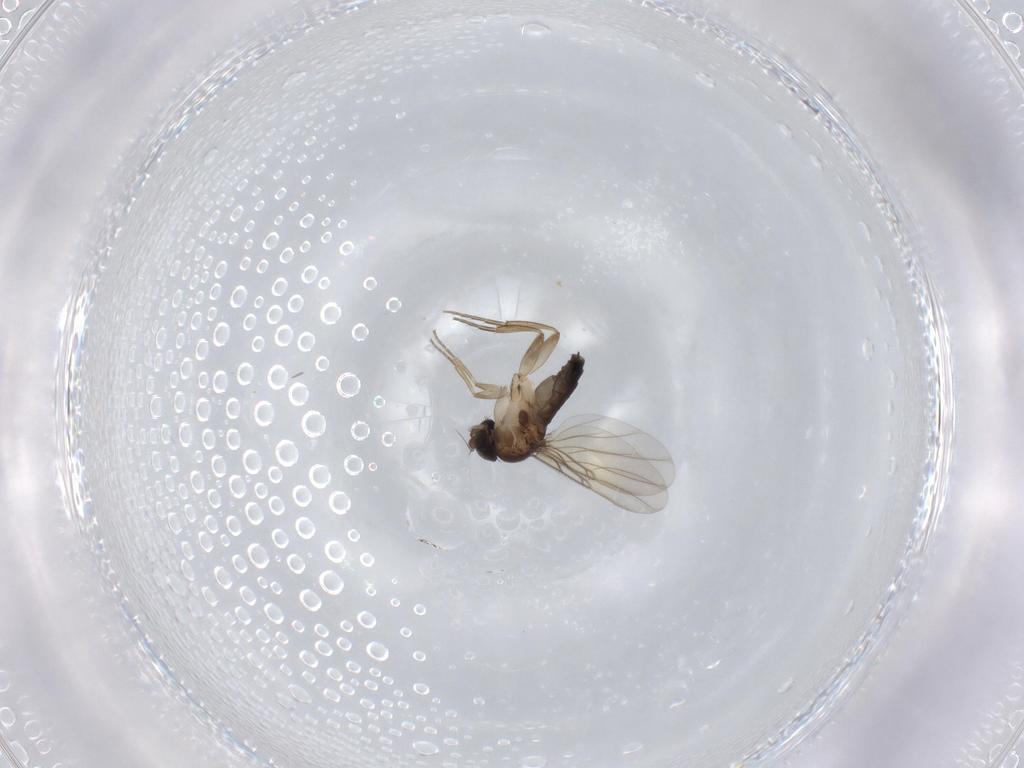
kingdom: Animalia
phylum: Arthropoda
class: Insecta
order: Diptera
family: Phoridae
